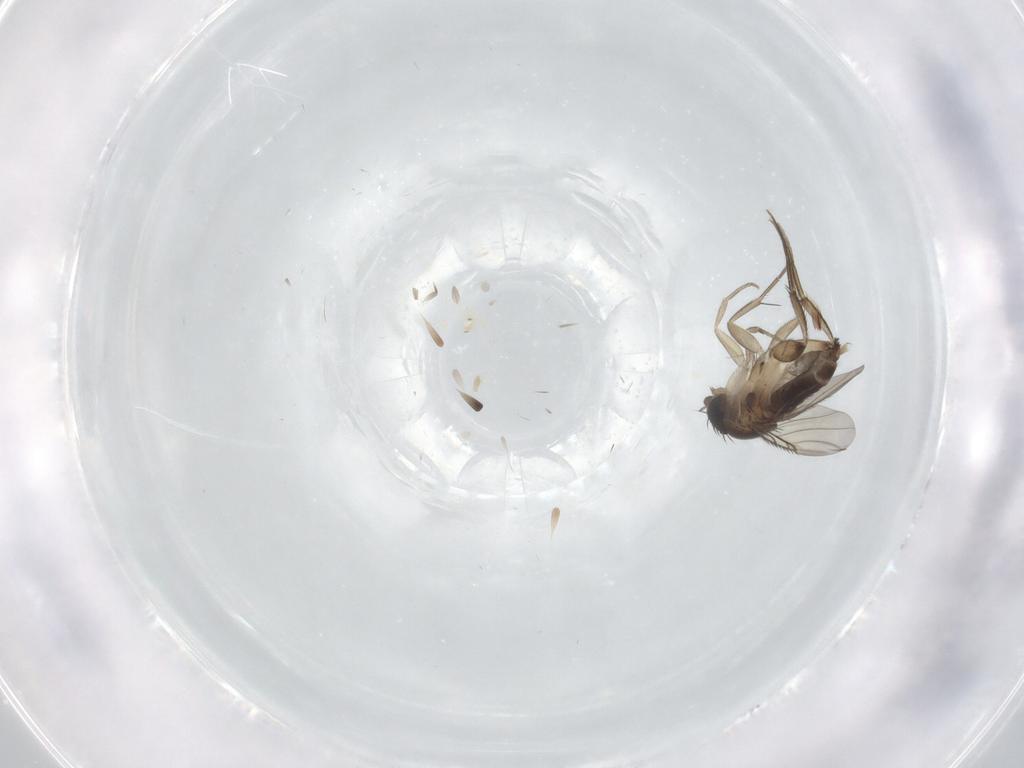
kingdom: Animalia
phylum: Arthropoda
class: Insecta
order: Diptera
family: Phoridae
